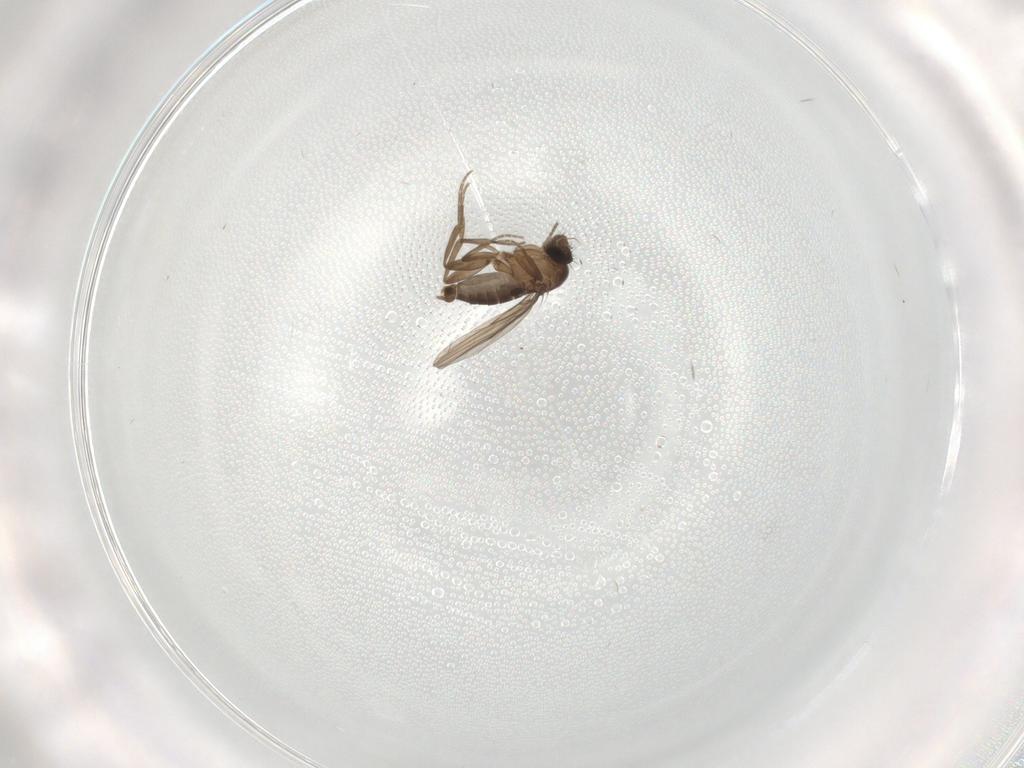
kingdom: Animalia
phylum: Arthropoda
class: Insecta
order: Diptera
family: Phoridae
